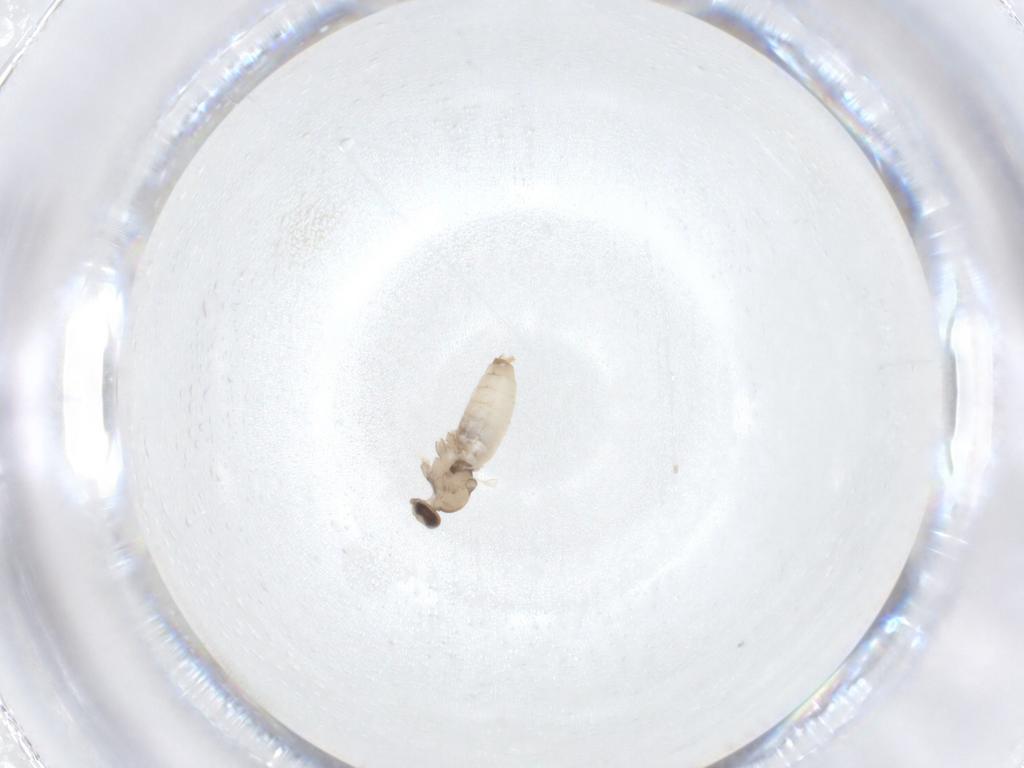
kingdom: Animalia
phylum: Arthropoda
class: Insecta
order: Diptera
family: Cecidomyiidae
